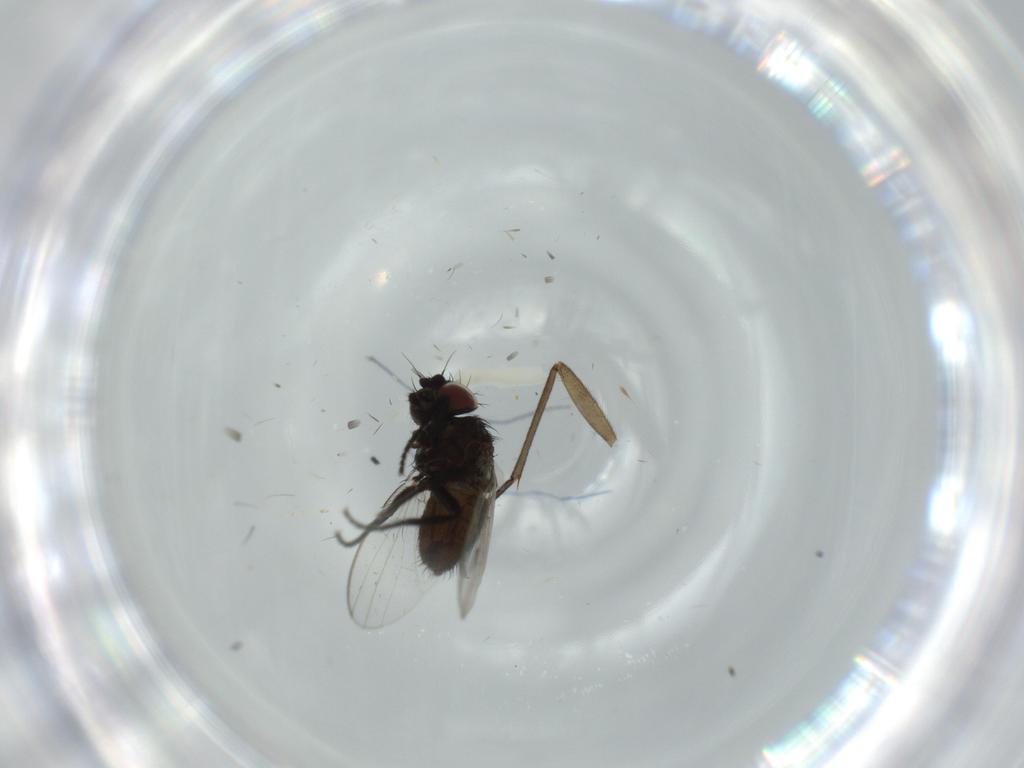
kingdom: Animalia
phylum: Arthropoda
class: Insecta
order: Diptera
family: Milichiidae
